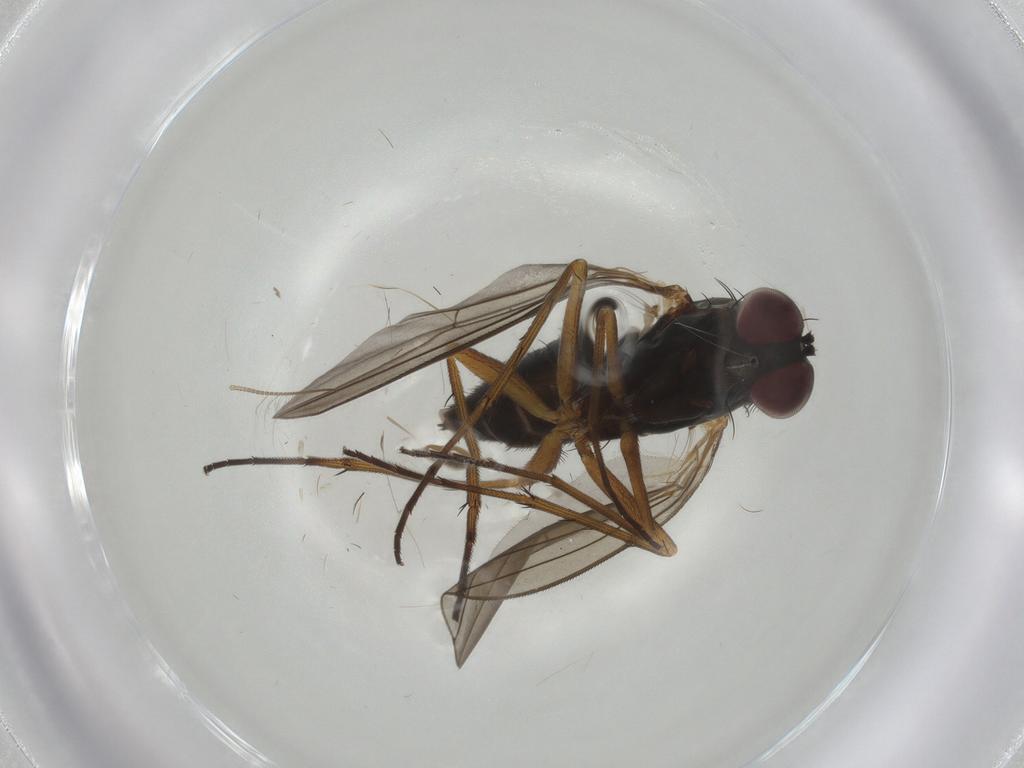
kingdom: Animalia
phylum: Arthropoda
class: Insecta
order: Diptera
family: Dolichopodidae
